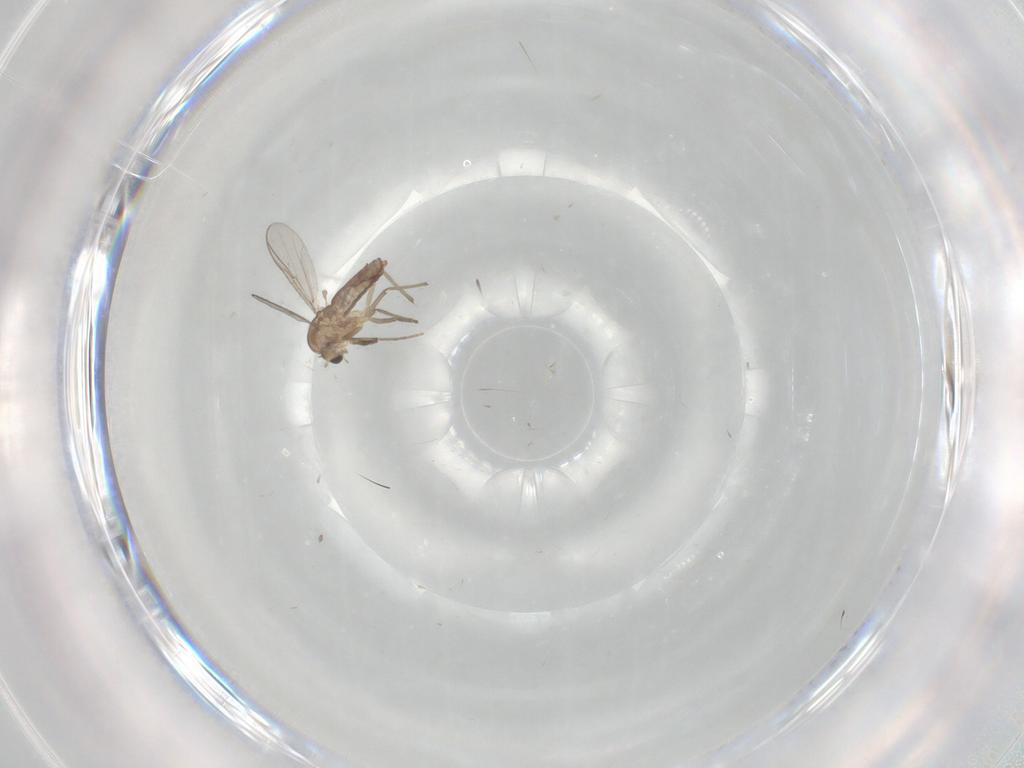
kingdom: Animalia
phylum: Arthropoda
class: Insecta
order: Diptera
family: Chironomidae
